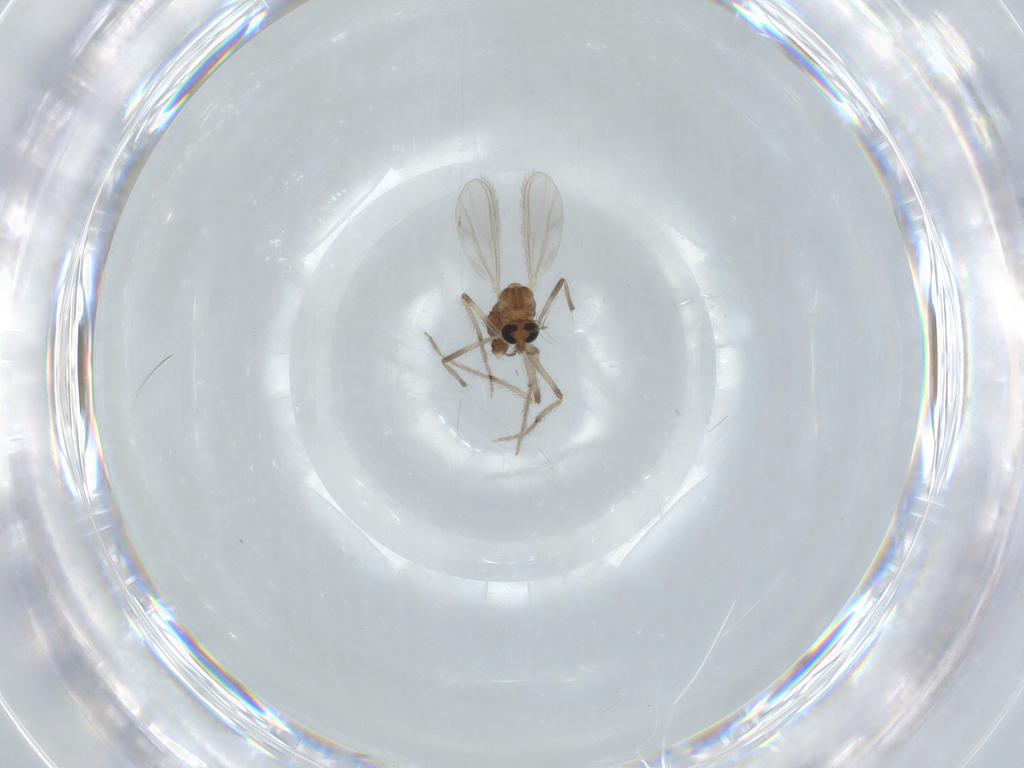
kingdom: Animalia
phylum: Arthropoda
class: Insecta
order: Diptera
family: Chironomidae
